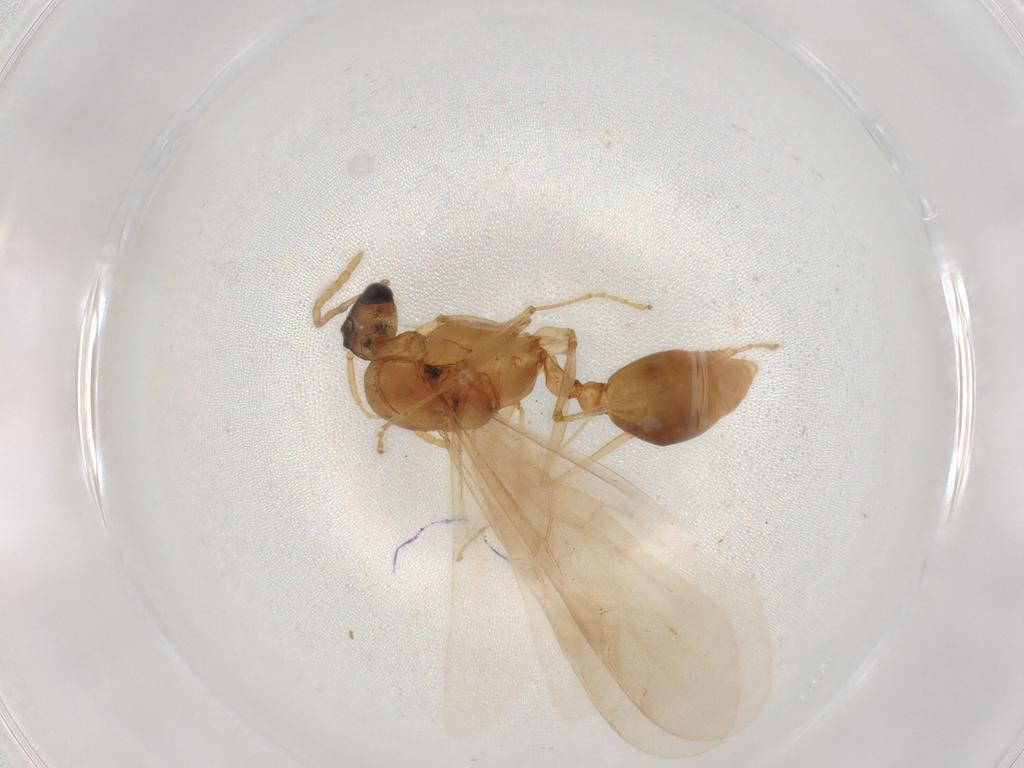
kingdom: Animalia
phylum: Arthropoda
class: Insecta
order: Hymenoptera
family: Formicidae
